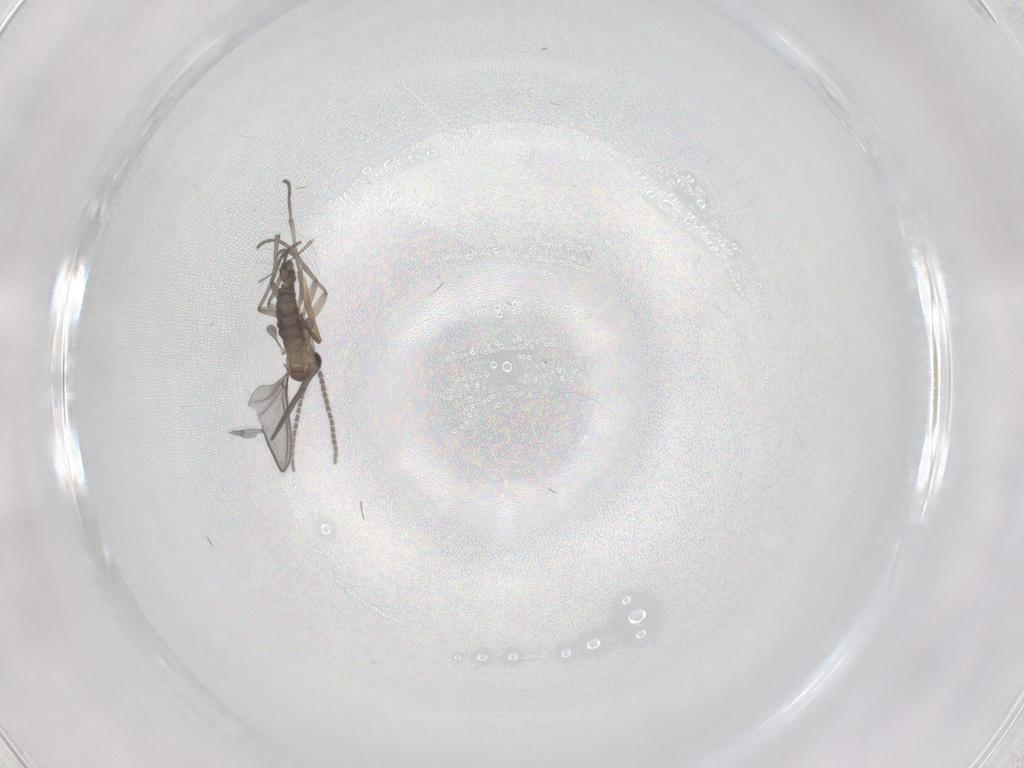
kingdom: Animalia
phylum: Arthropoda
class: Insecta
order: Diptera
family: Sciaridae
